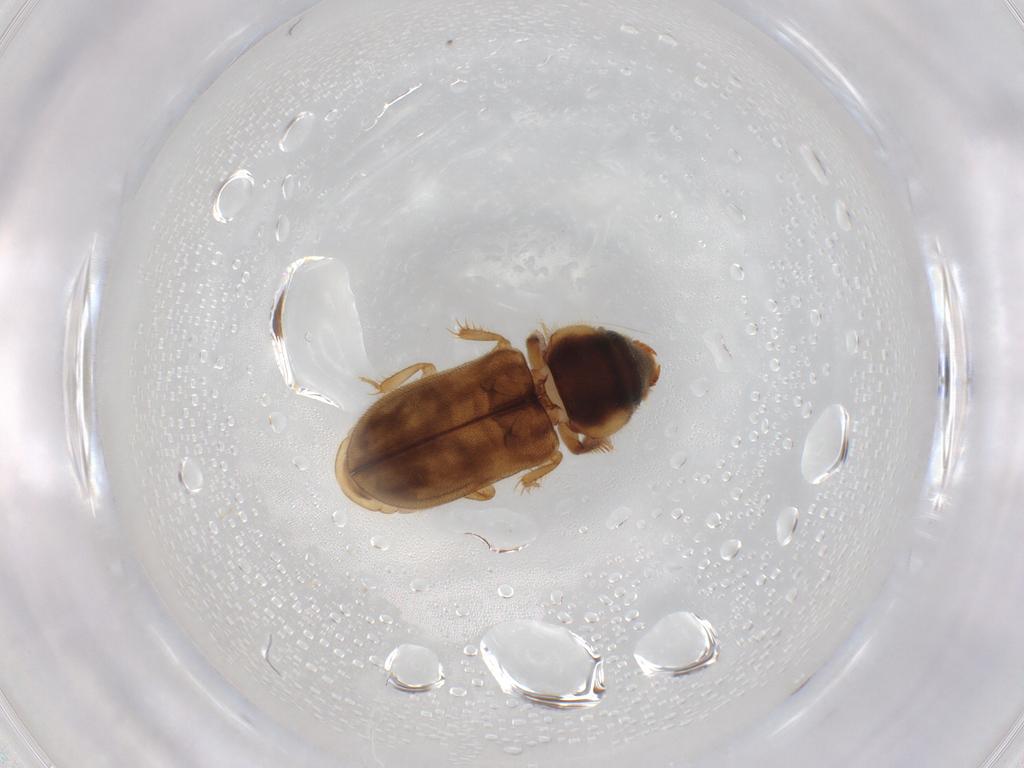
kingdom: Animalia
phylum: Arthropoda
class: Insecta
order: Coleoptera
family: Heteroceridae
